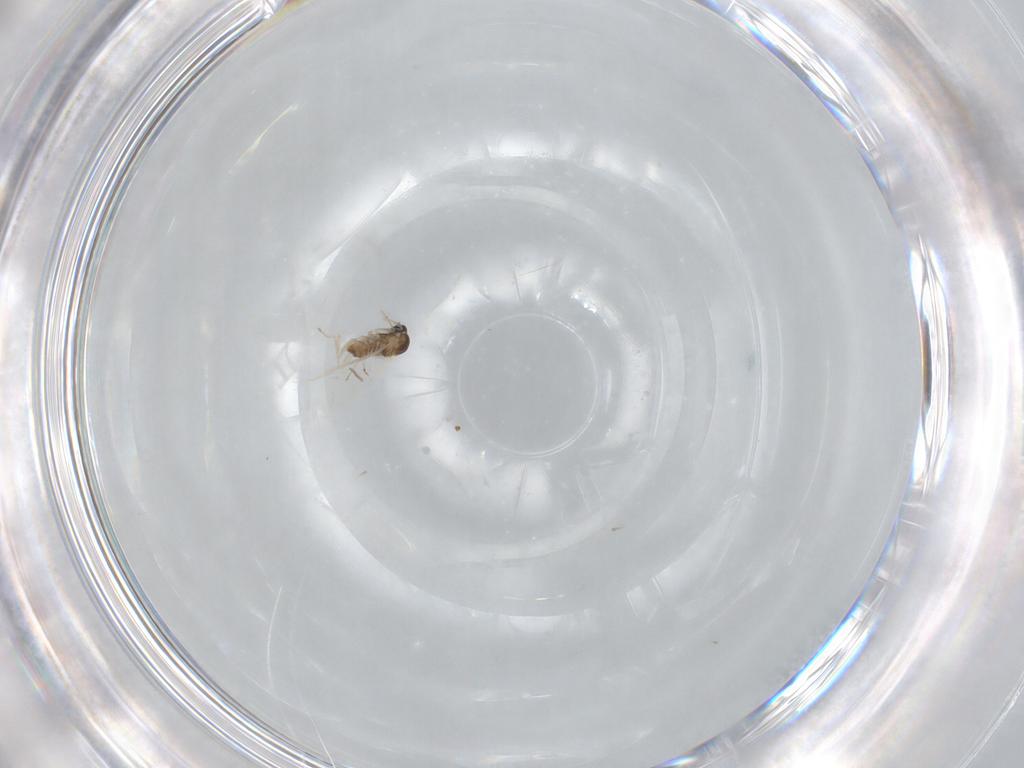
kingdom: Animalia
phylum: Arthropoda
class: Insecta
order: Diptera
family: Cecidomyiidae
